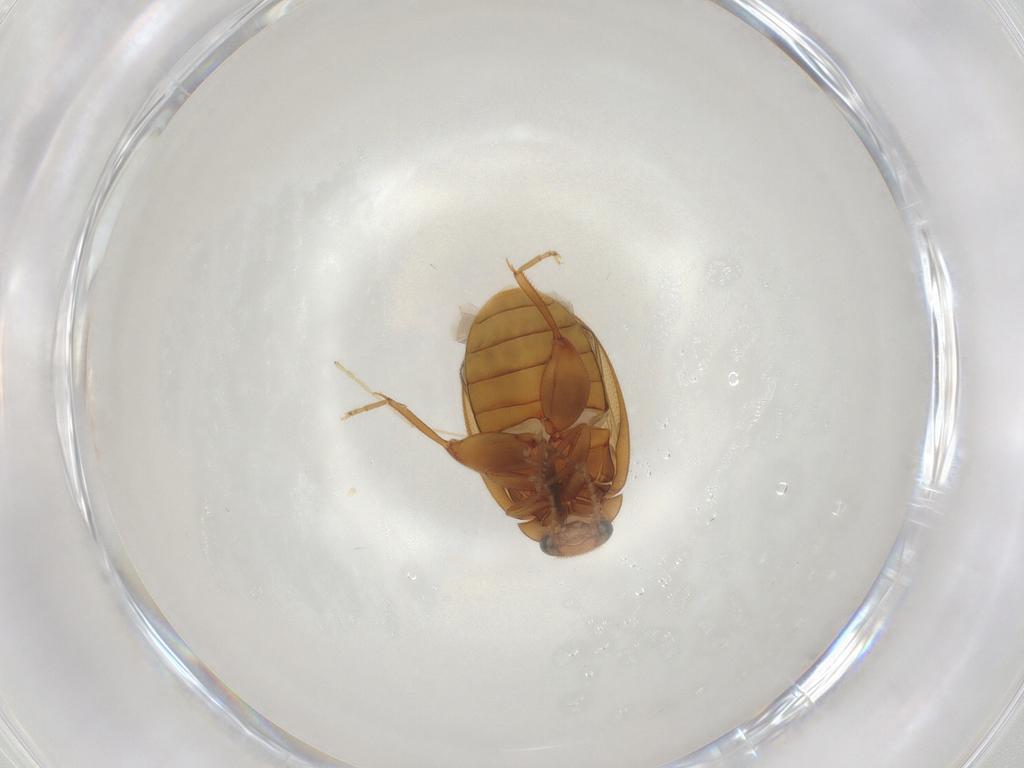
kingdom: Animalia
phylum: Arthropoda
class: Insecta
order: Coleoptera
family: Scirtidae
